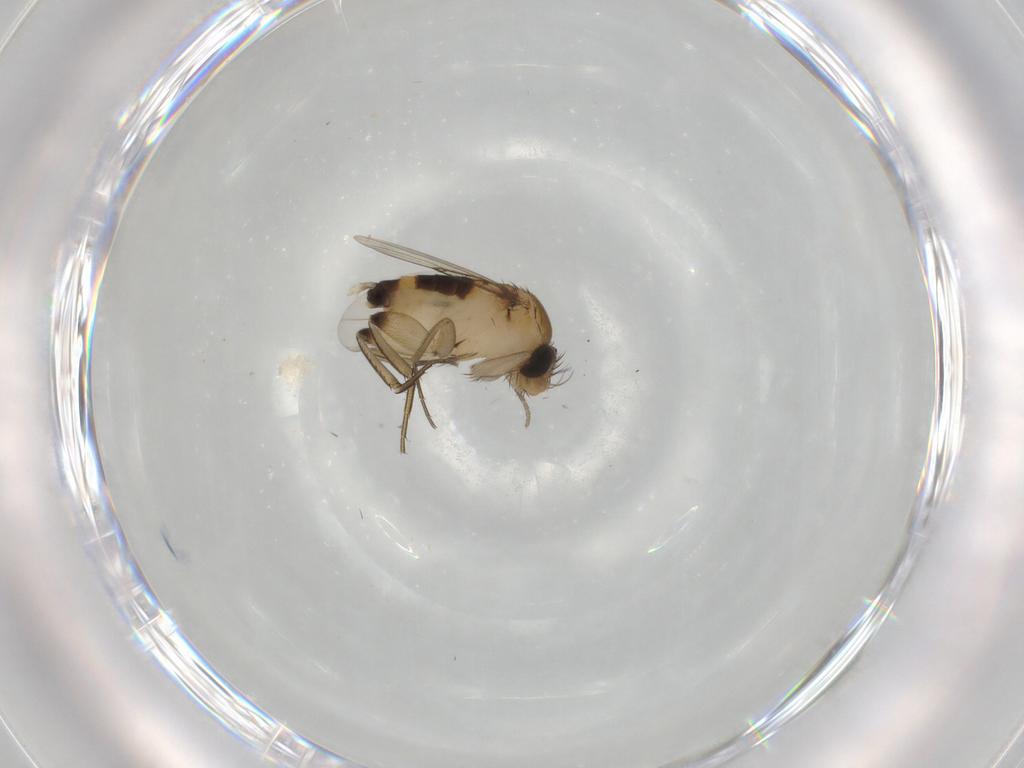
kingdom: Animalia
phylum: Arthropoda
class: Insecta
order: Diptera
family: Phoridae
